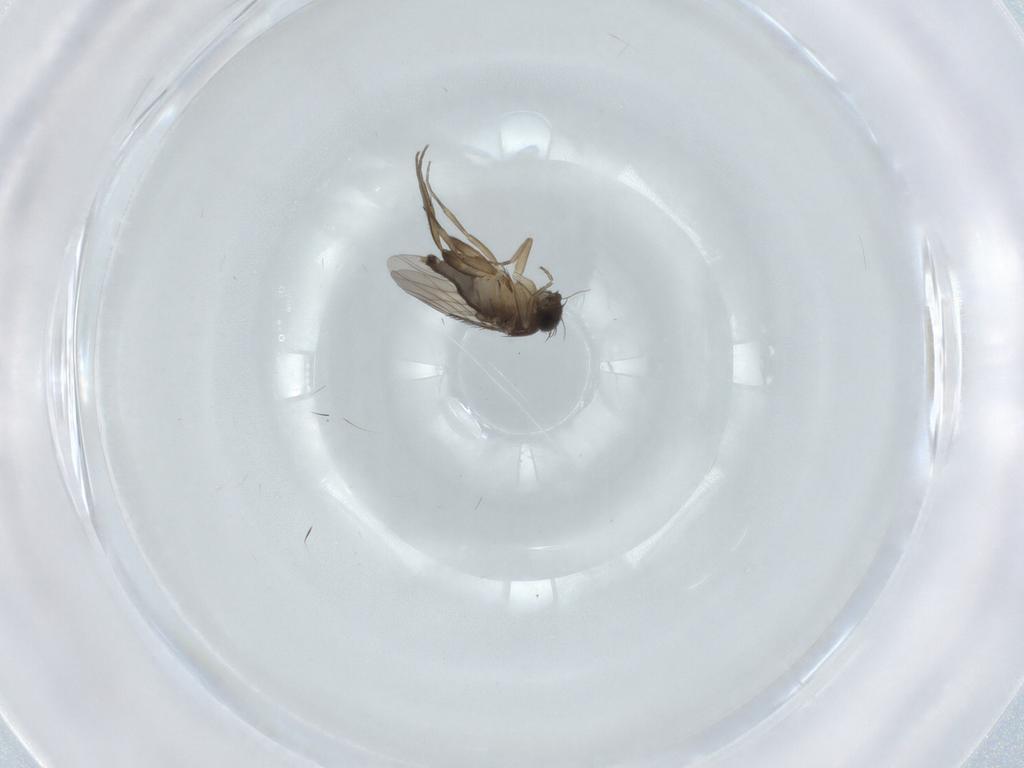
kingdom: Animalia
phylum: Arthropoda
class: Insecta
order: Diptera
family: Phoridae
